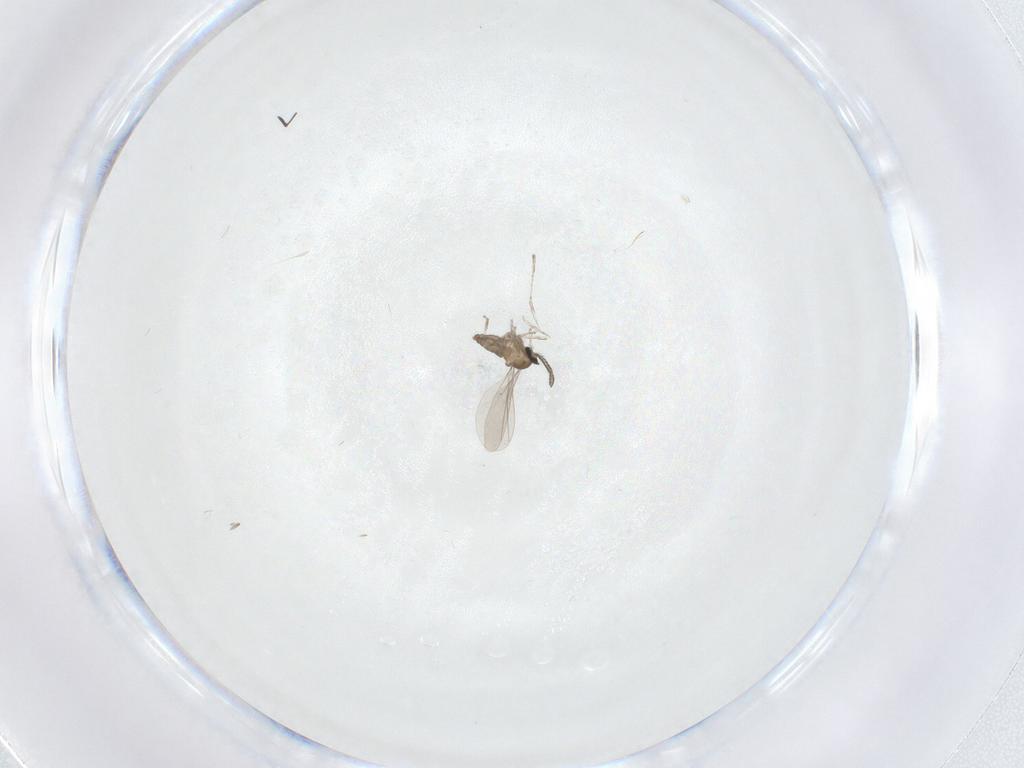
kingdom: Animalia
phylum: Arthropoda
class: Insecta
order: Diptera
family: Cecidomyiidae
